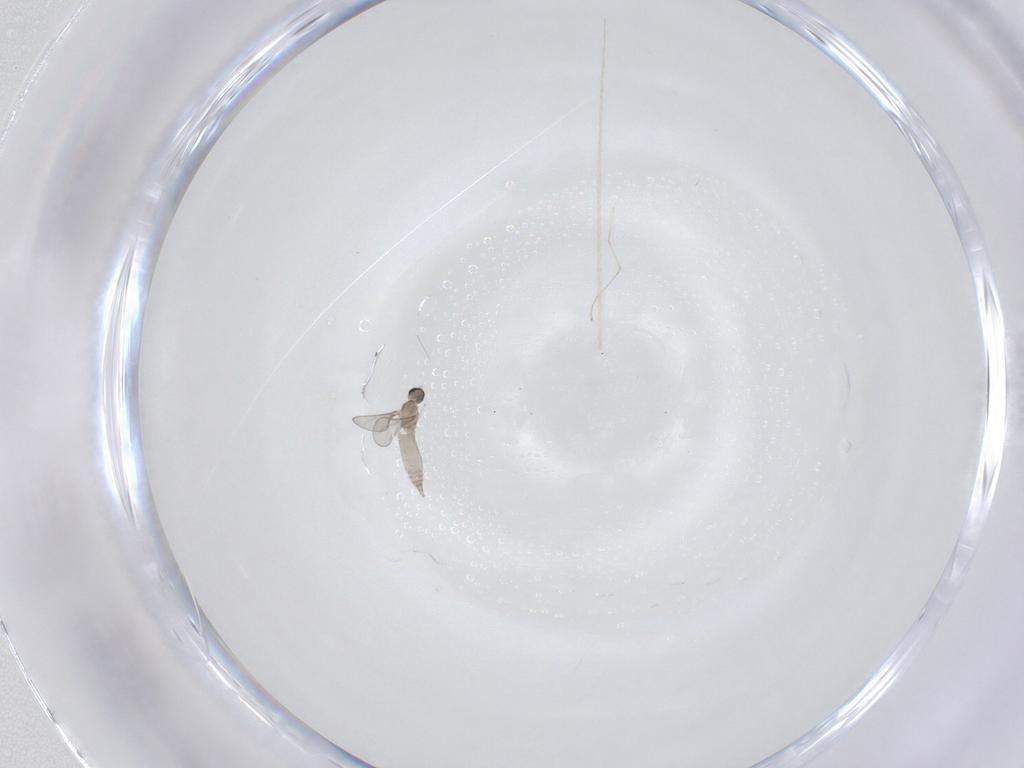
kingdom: Animalia
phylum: Arthropoda
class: Insecta
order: Diptera
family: Cecidomyiidae
